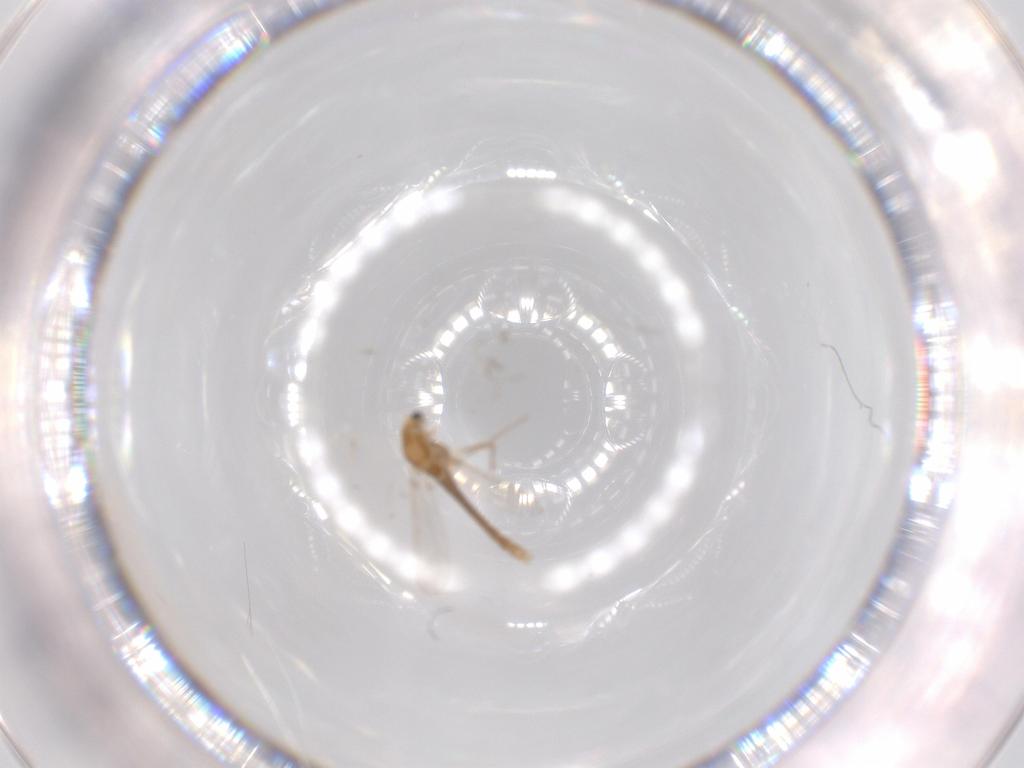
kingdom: Animalia
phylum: Arthropoda
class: Insecta
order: Diptera
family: Chironomidae
